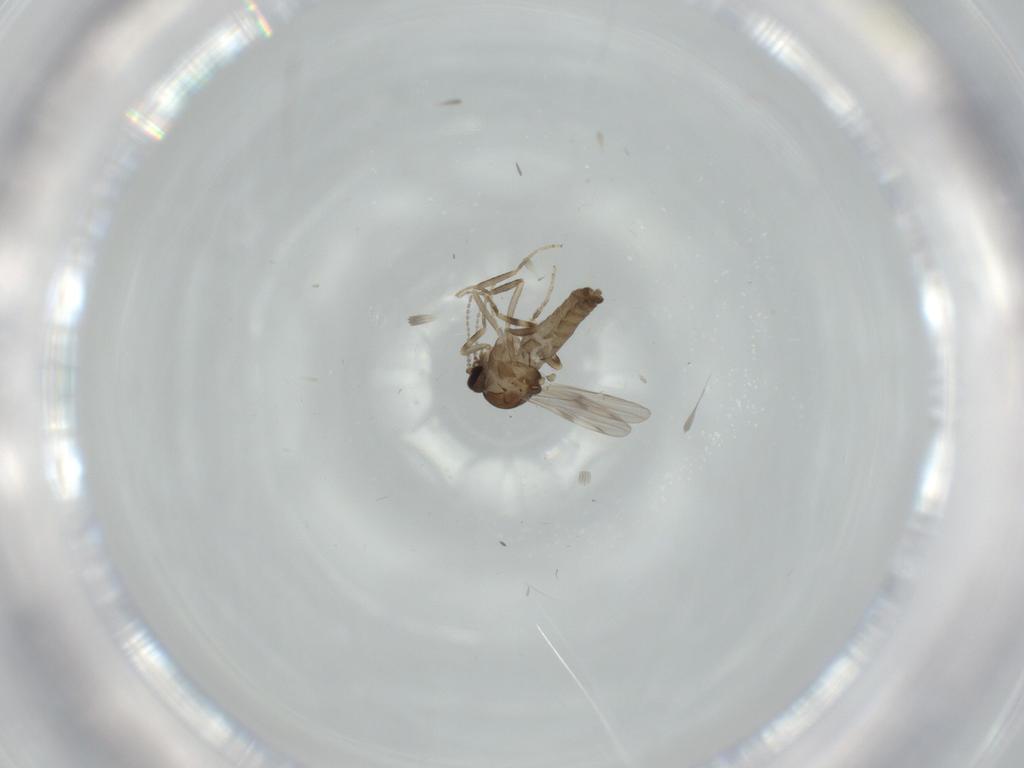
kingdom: Animalia
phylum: Arthropoda
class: Insecta
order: Diptera
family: Ceratopogonidae
